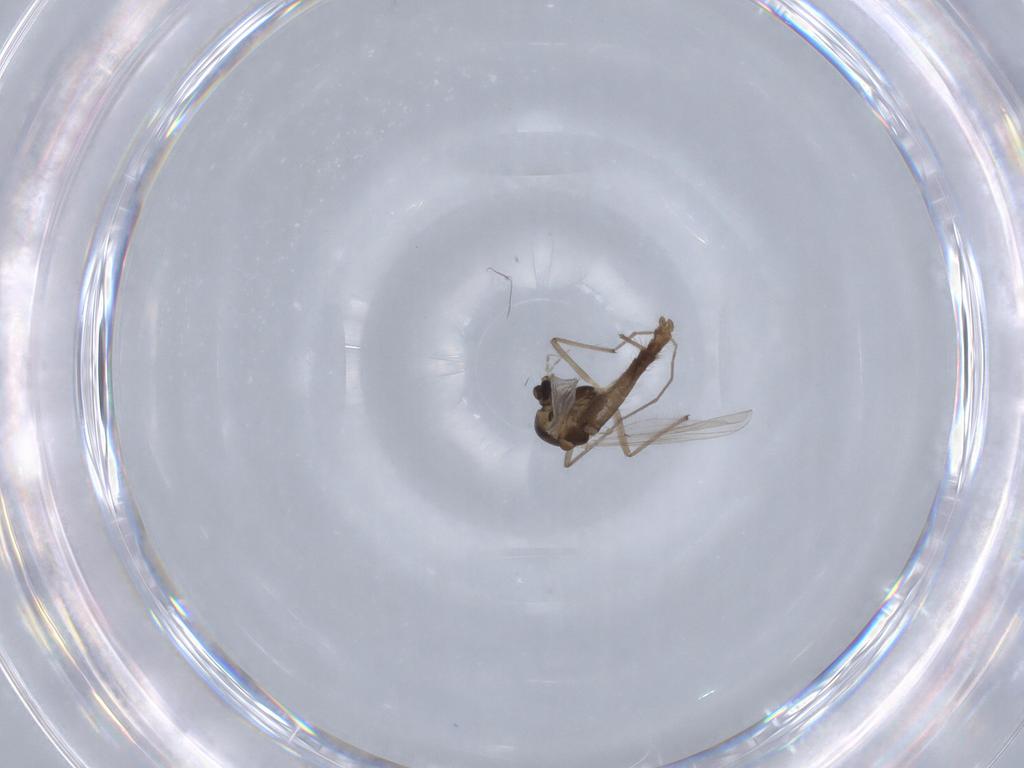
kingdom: Animalia
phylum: Arthropoda
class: Insecta
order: Diptera
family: Chironomidae
